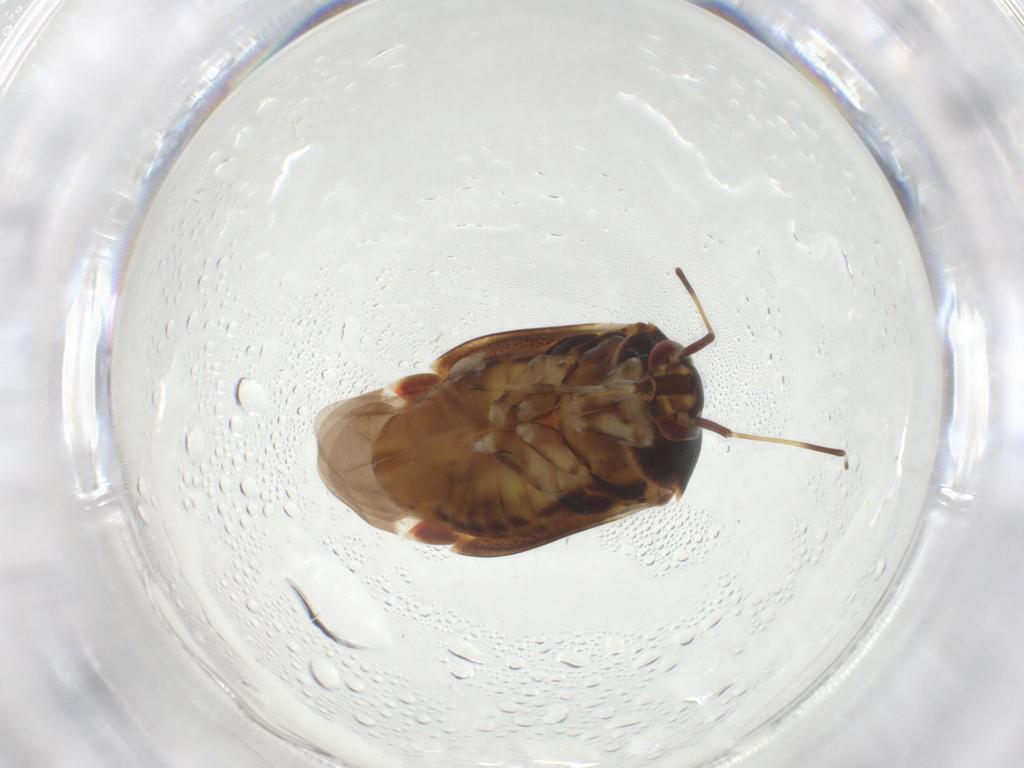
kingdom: Animalia
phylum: Arthropoda
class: Insecta
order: Hemiptera
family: Miridae
